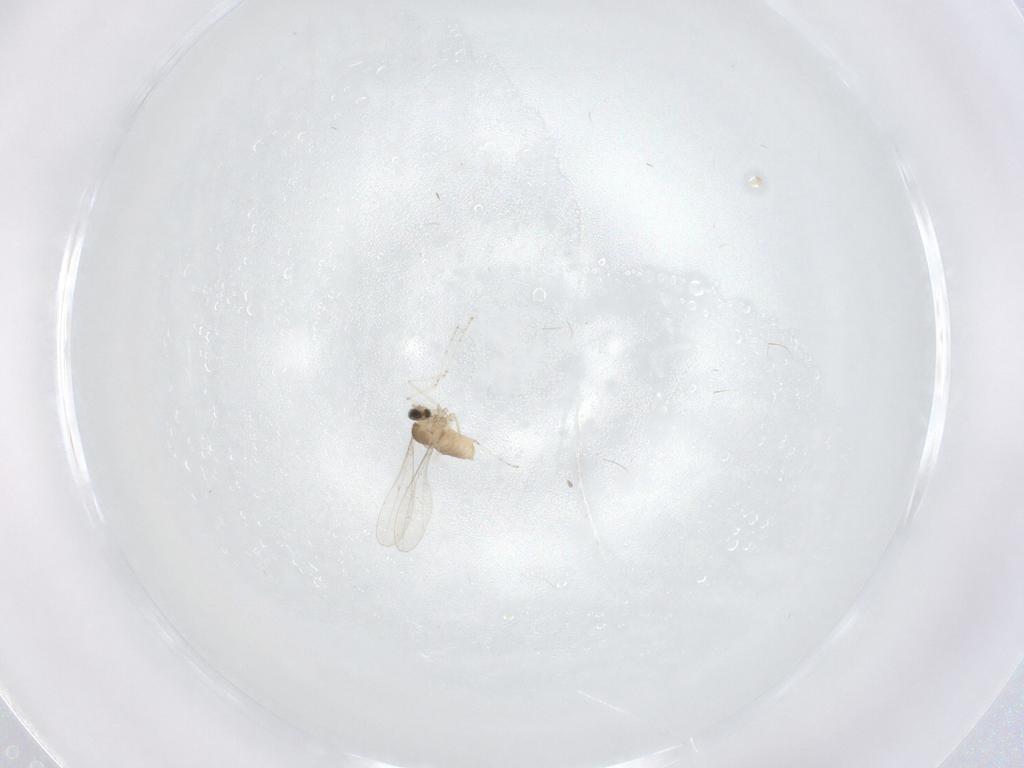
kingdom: Animalia
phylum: Arthropoda
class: Insecta
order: Diptera
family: Cecidomyiidae
